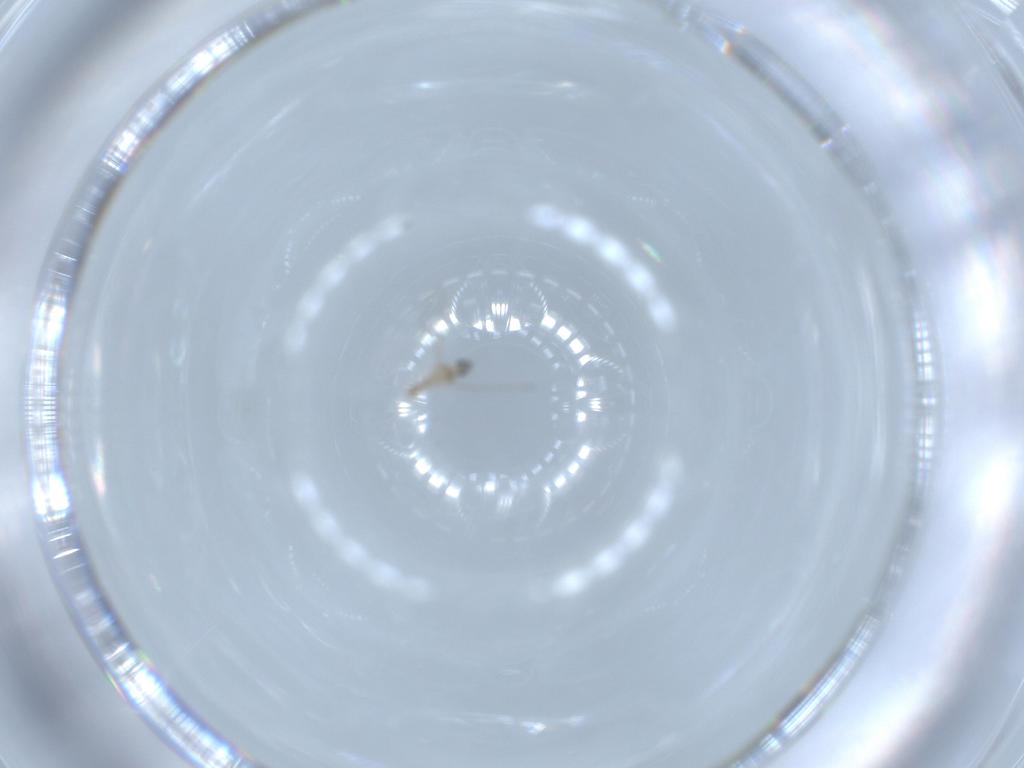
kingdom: Animalia
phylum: Arthropoda
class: Insecta
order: Diptera
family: Cecidomyiidae
